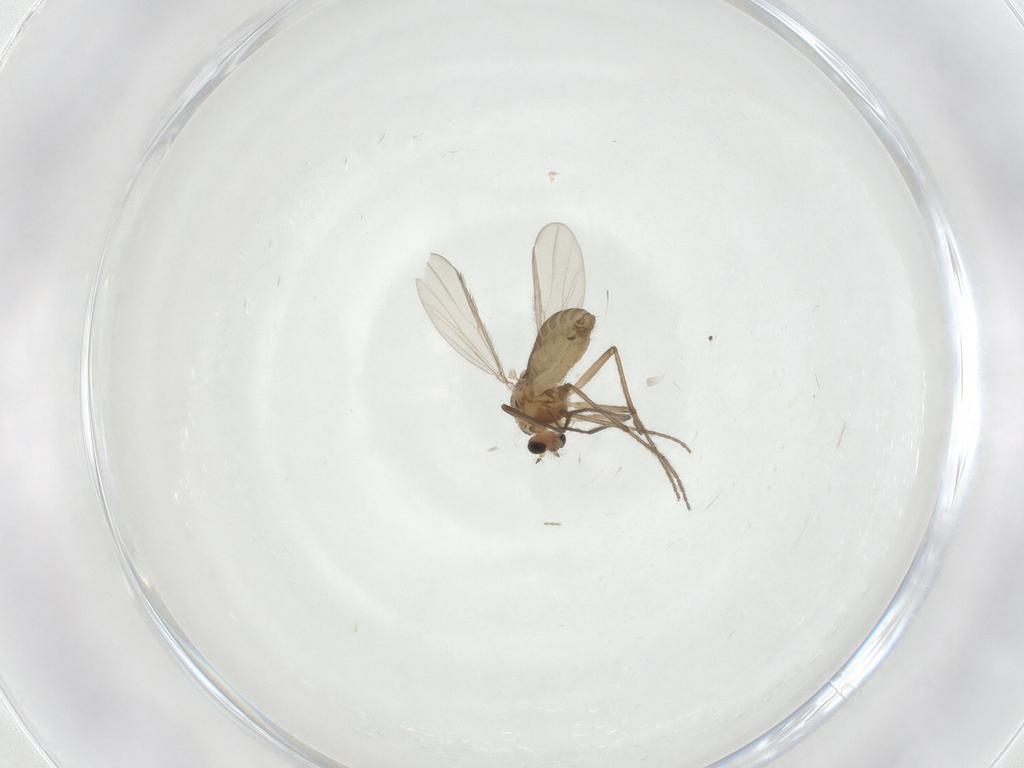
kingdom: Animalia
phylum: Arthropoda
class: Insecta
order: Diptera
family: Chironomidae
